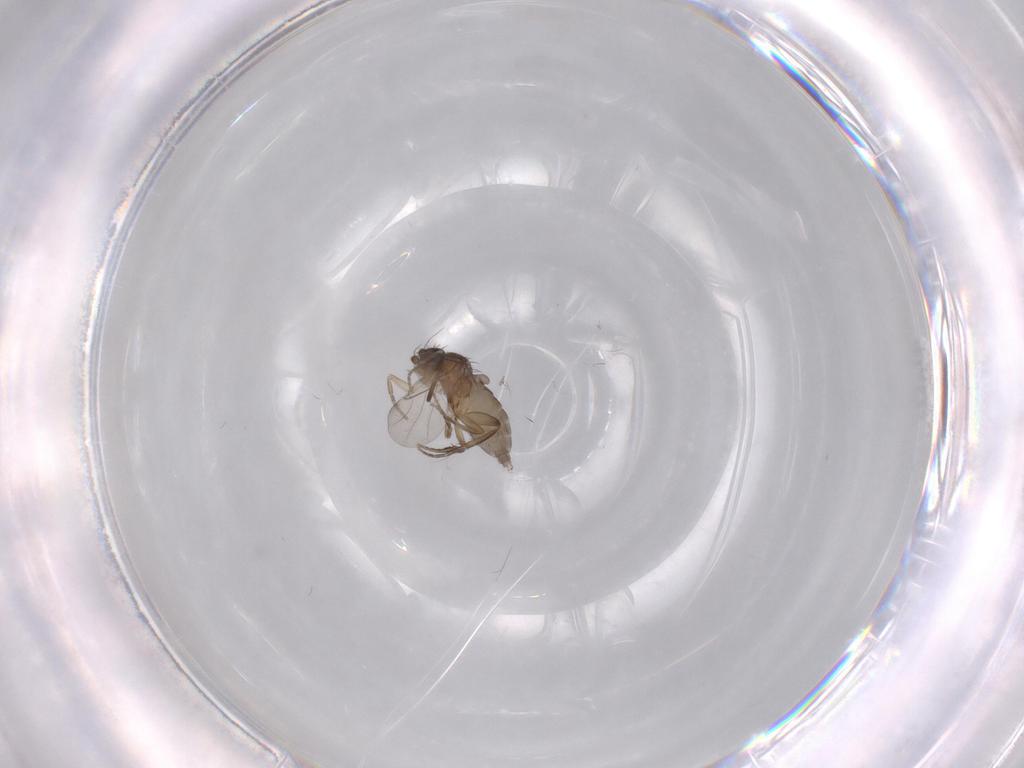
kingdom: Animalia
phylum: Arthropoda
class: Insecta
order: Diptera
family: Phoridae
